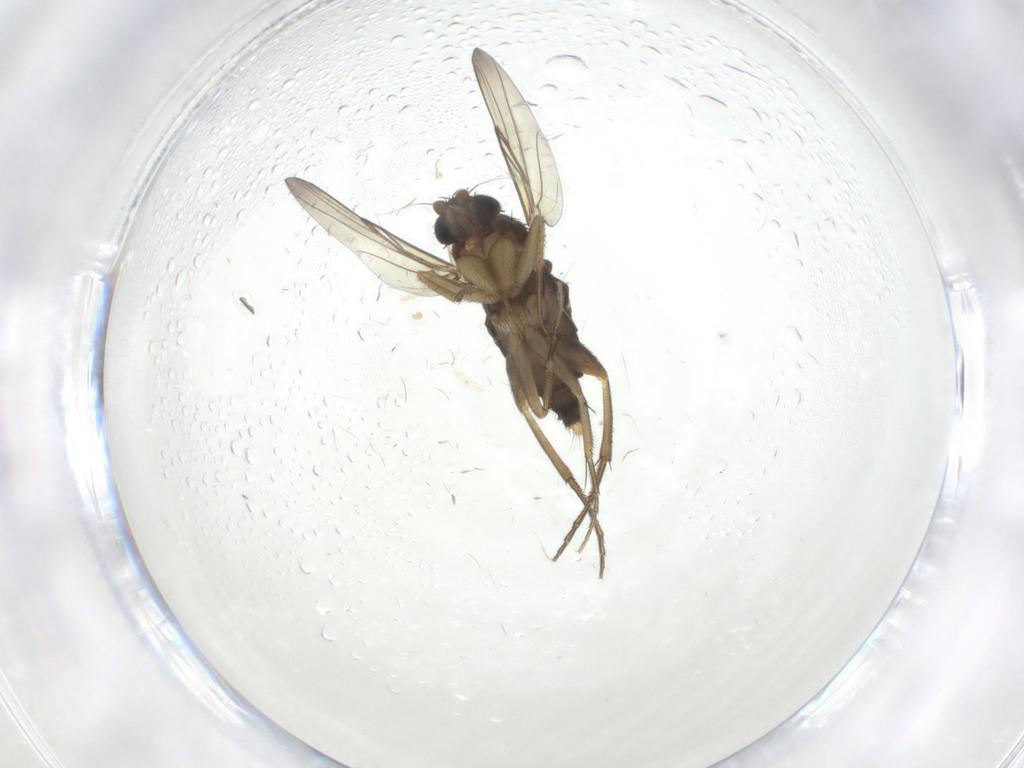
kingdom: Animalia
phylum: Arthropoda
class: Insecta
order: Diptera
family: Phoridae
